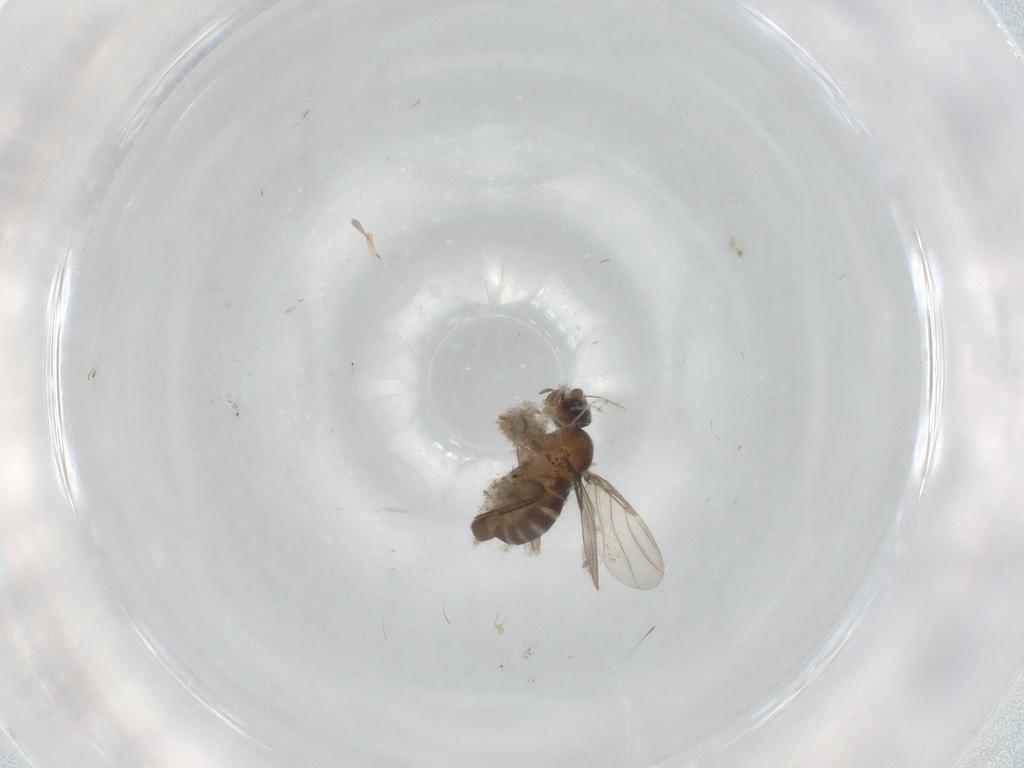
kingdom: Animalia
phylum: Arthropoda
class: Insecta
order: Diptera
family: Phoridae
